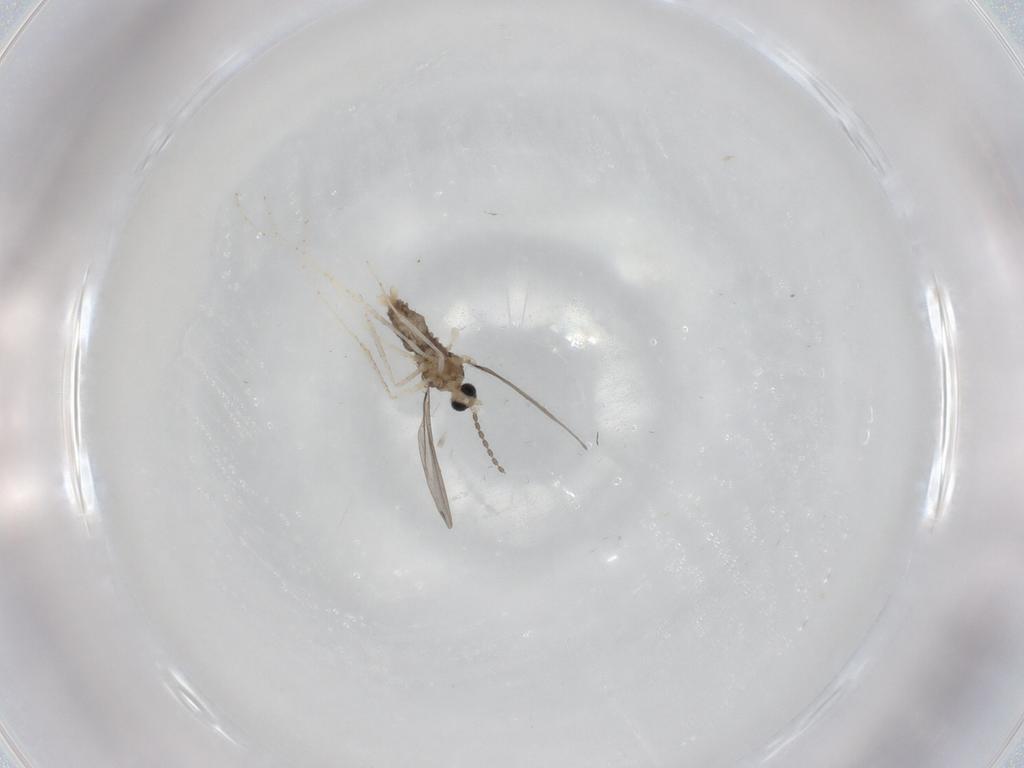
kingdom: Animalia
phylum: Arthropoda
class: Insecta
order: Diptera
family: Cecidomyiidae
